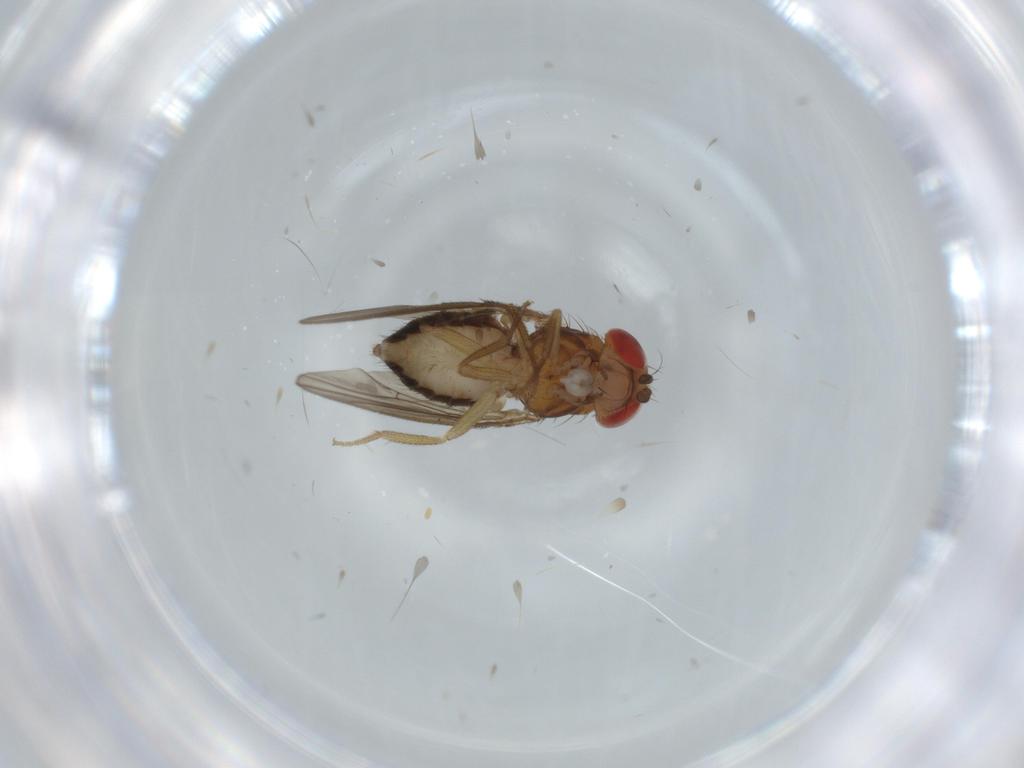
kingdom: Animalia
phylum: Arthropoda
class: Insecta
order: Diptera
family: Drosophilidae
